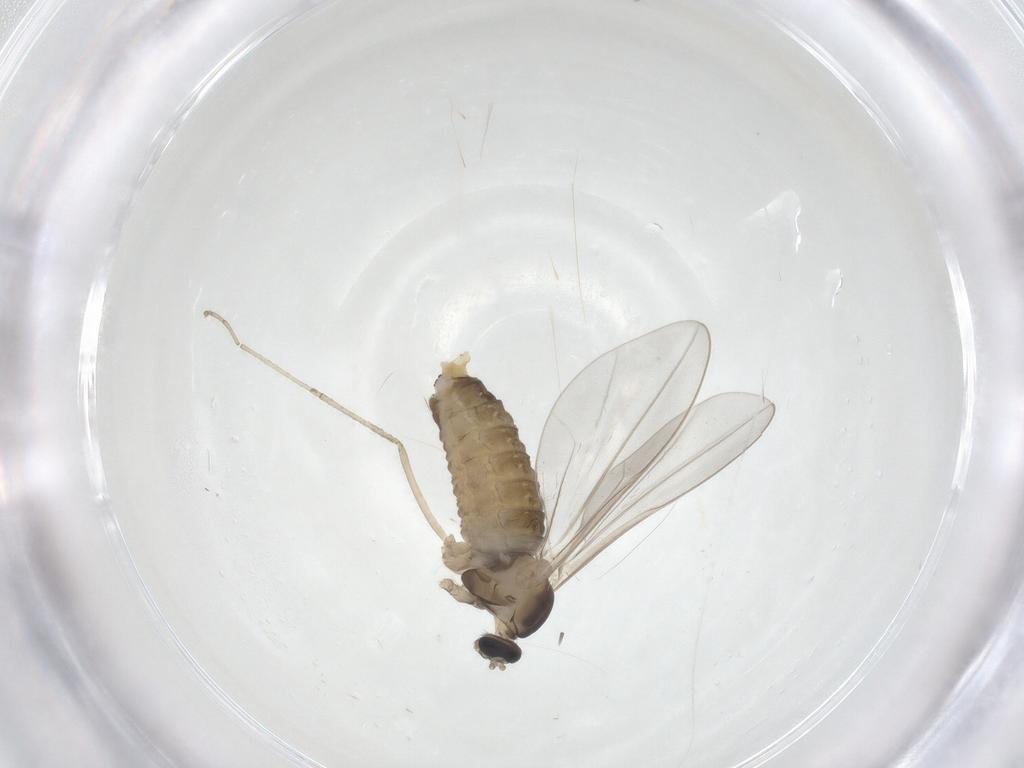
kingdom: Animalia
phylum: Arthropoda
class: Insecta
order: Diptera
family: Cecidomyiidae
